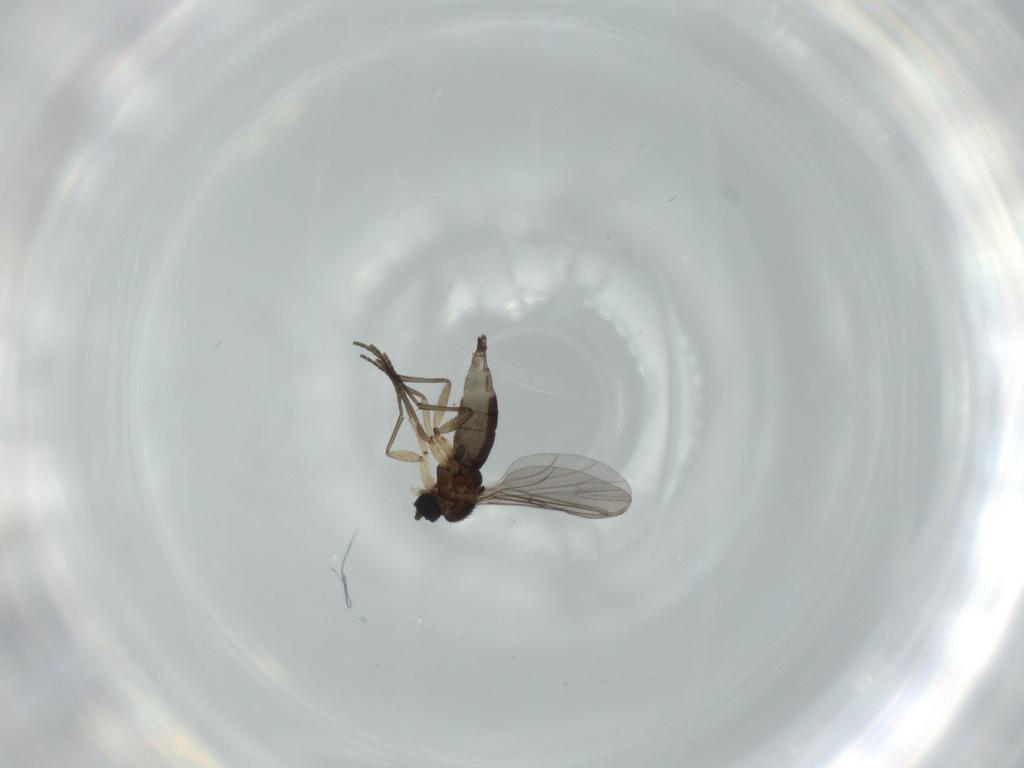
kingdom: Animalia
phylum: Arthropoda
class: Insecta
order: Diptera
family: Sciaridae
